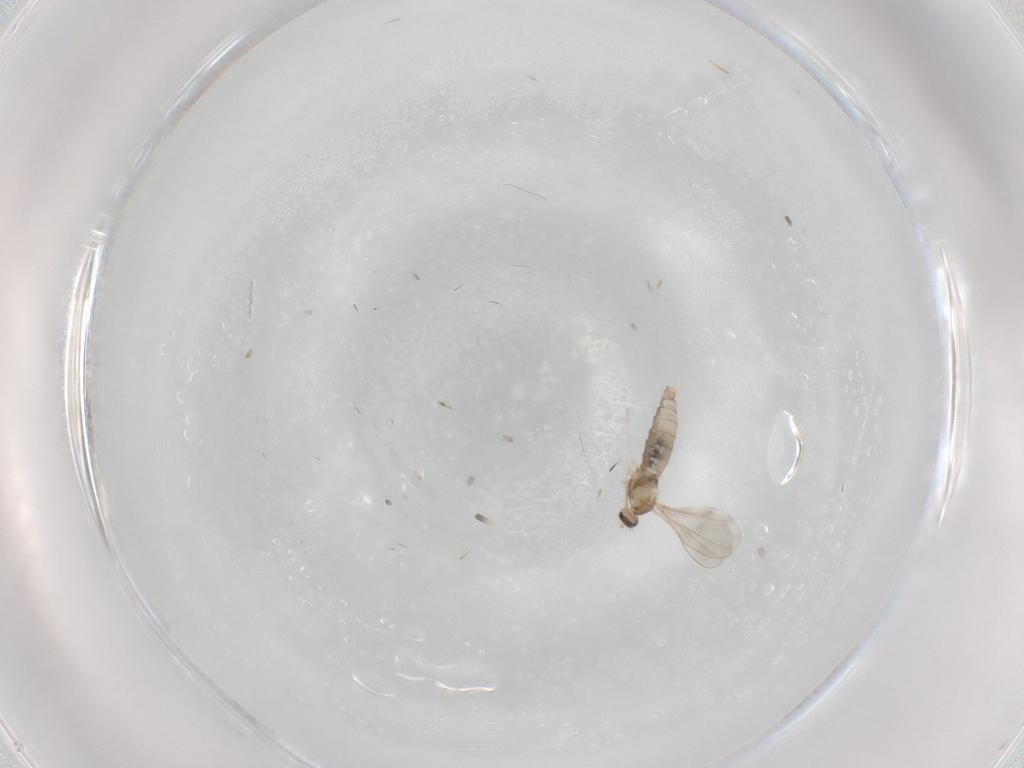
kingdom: Animalia
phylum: Arthropoda
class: Insecta
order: Diptera
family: Cecidomyiidae
